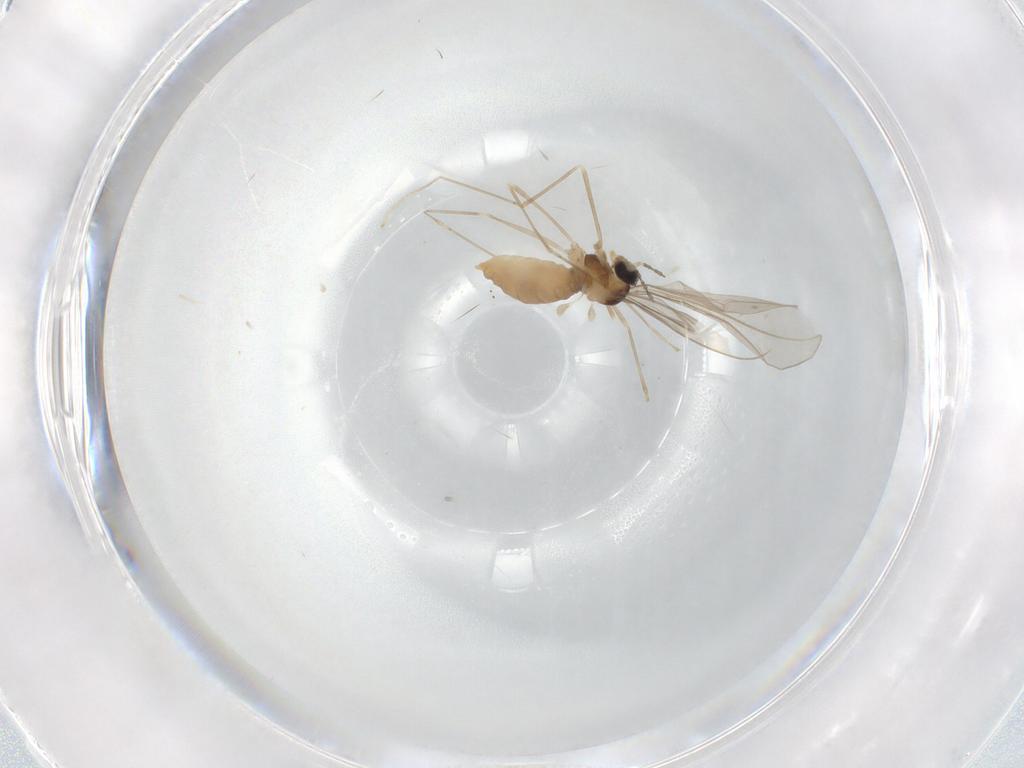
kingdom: Animalia
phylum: Arthropoda
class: Insecta
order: Diptera
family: Cecidomyiidae
